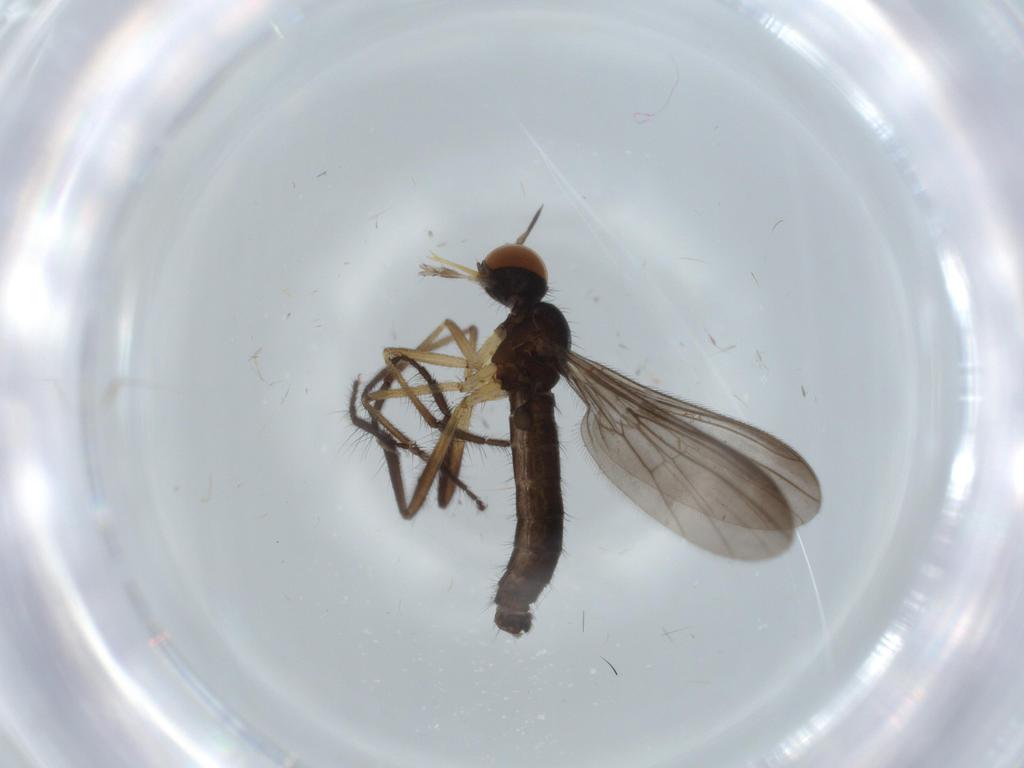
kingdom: Animalia
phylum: Arthropoda
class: Insecta
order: Diptera
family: Empididae
